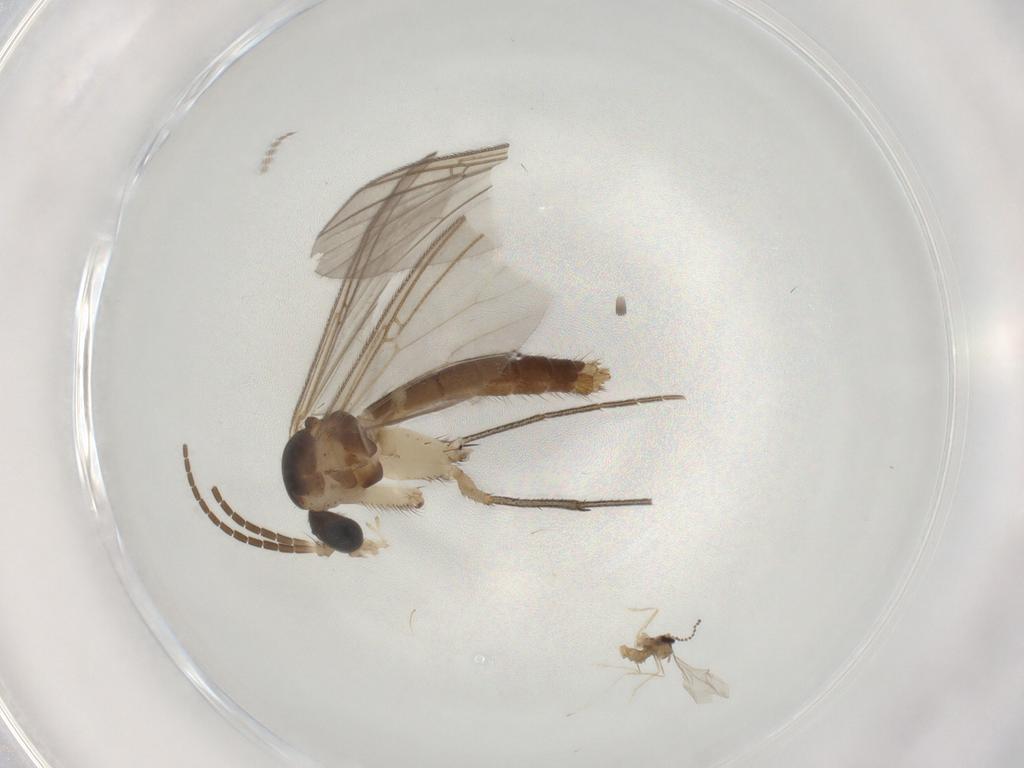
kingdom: Animalia
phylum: Arthropoda
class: Insecta
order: Diptera
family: Mycetophilidae
